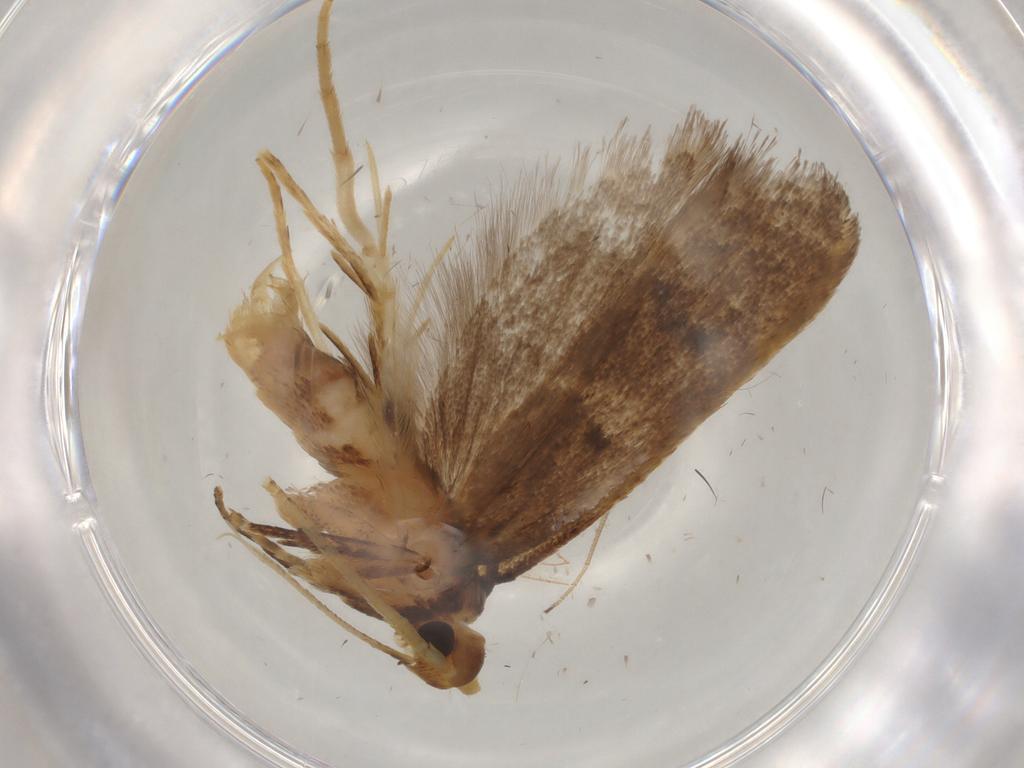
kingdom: Animalia
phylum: Arthropoda
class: Insecta
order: Lepidoptera
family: Lecithoceridae
